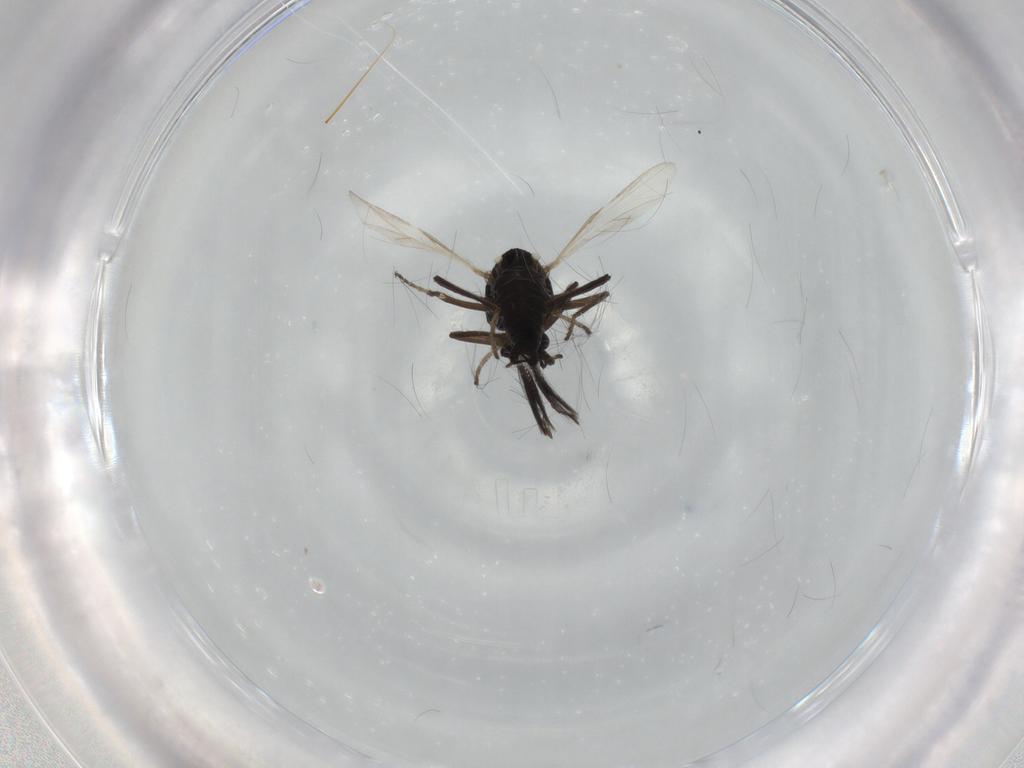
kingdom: Animalia
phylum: Arthropoda
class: Insecta
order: Diptera
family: Ceratopogonidae
